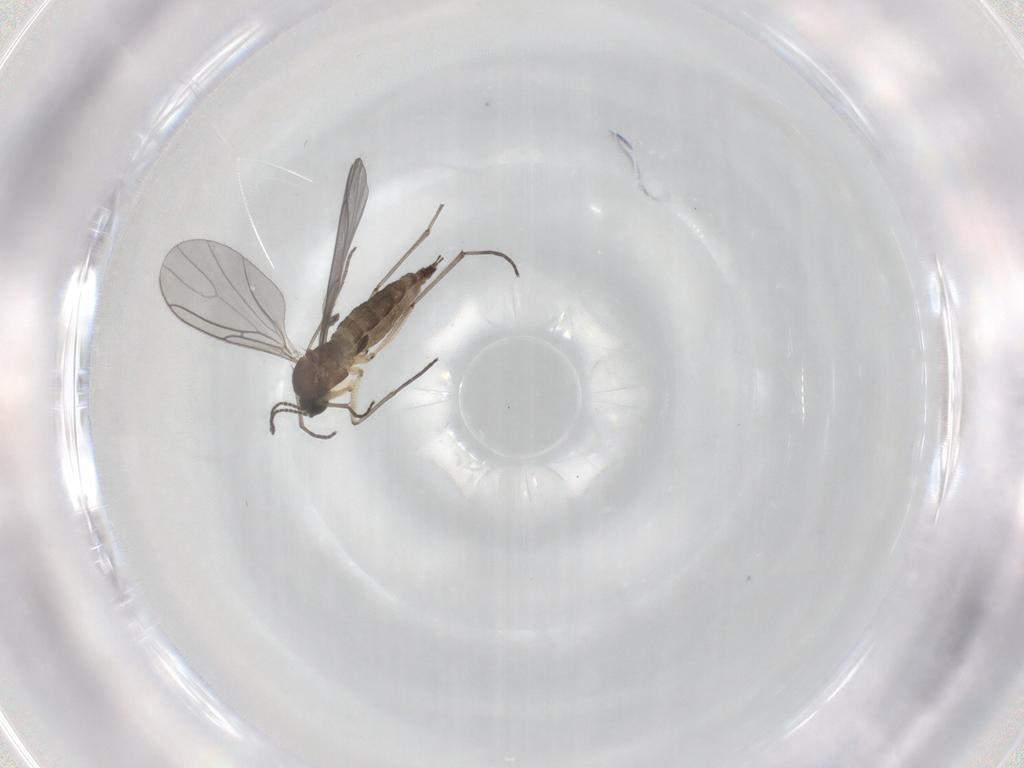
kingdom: Animalia
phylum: Arthropoda
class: Insecta
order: Diptera
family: Sciaridae
